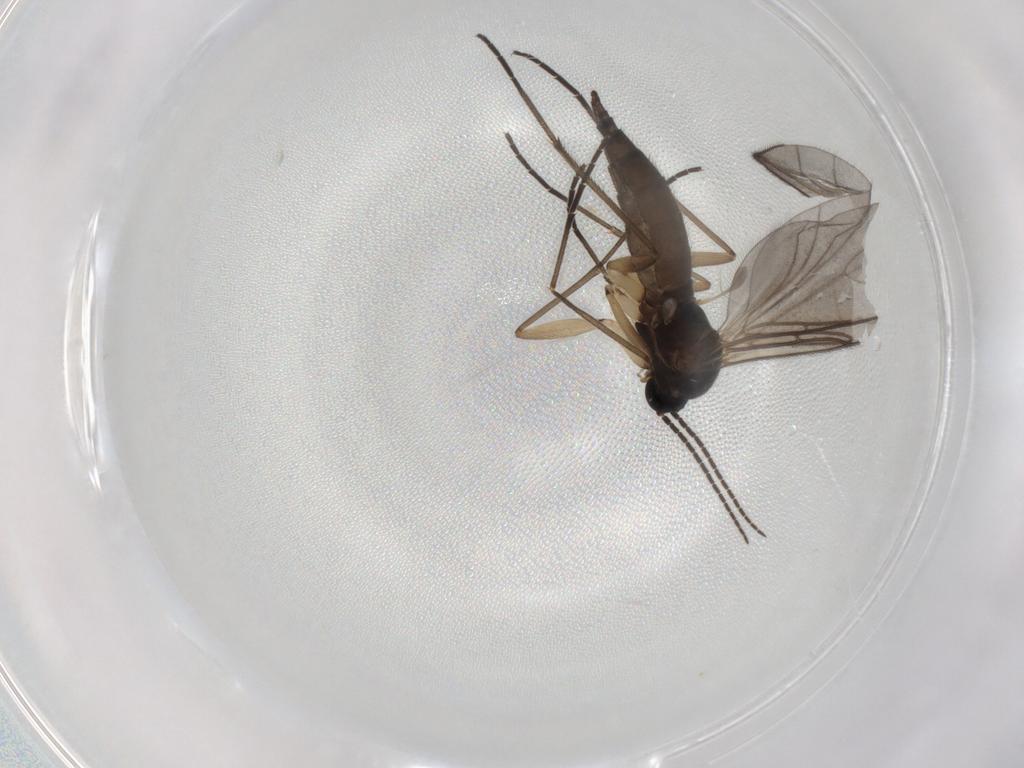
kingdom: Animalia
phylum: Arthropoda
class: Insecta
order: Diptera
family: Sciaridae
